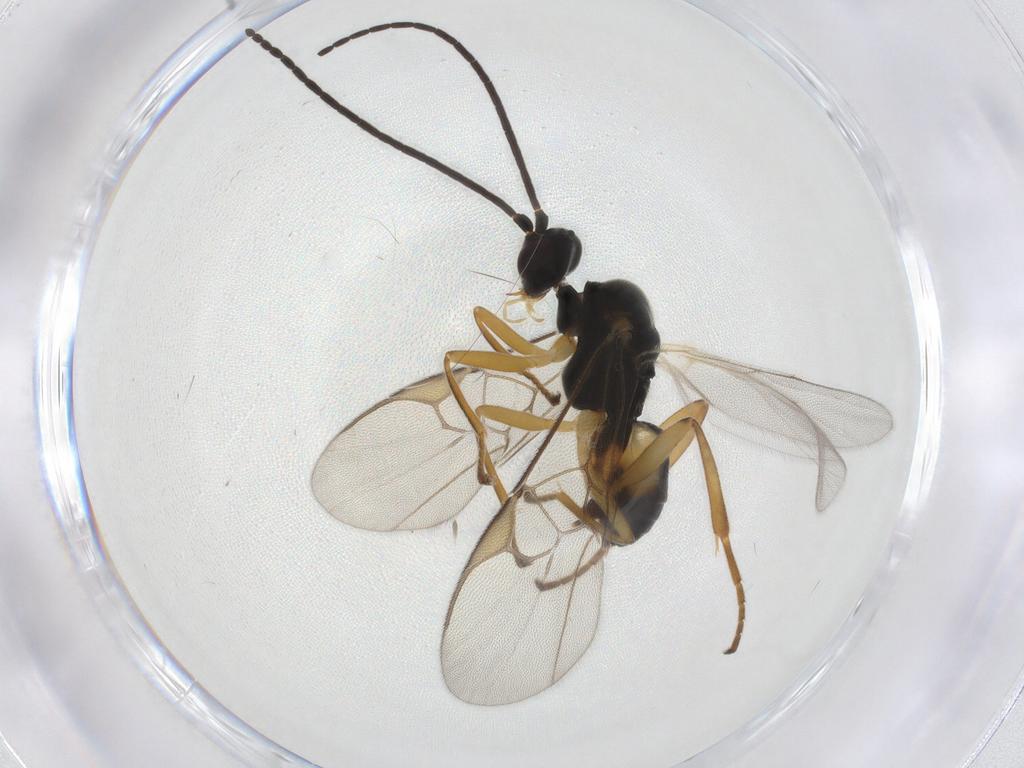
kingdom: Animalia
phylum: Arthropoda
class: Insecta
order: Hymenoptera
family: Braconidae
